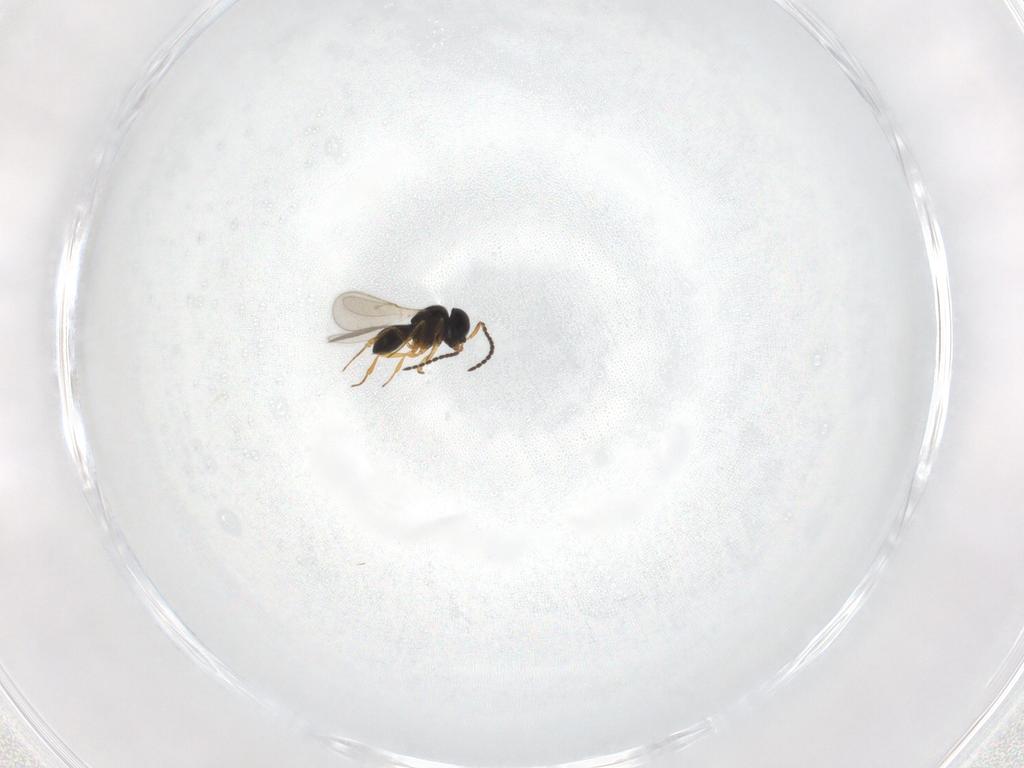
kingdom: Animalia
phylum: Arthropoda
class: Insecta
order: Hymenoptera
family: Scelionidae
